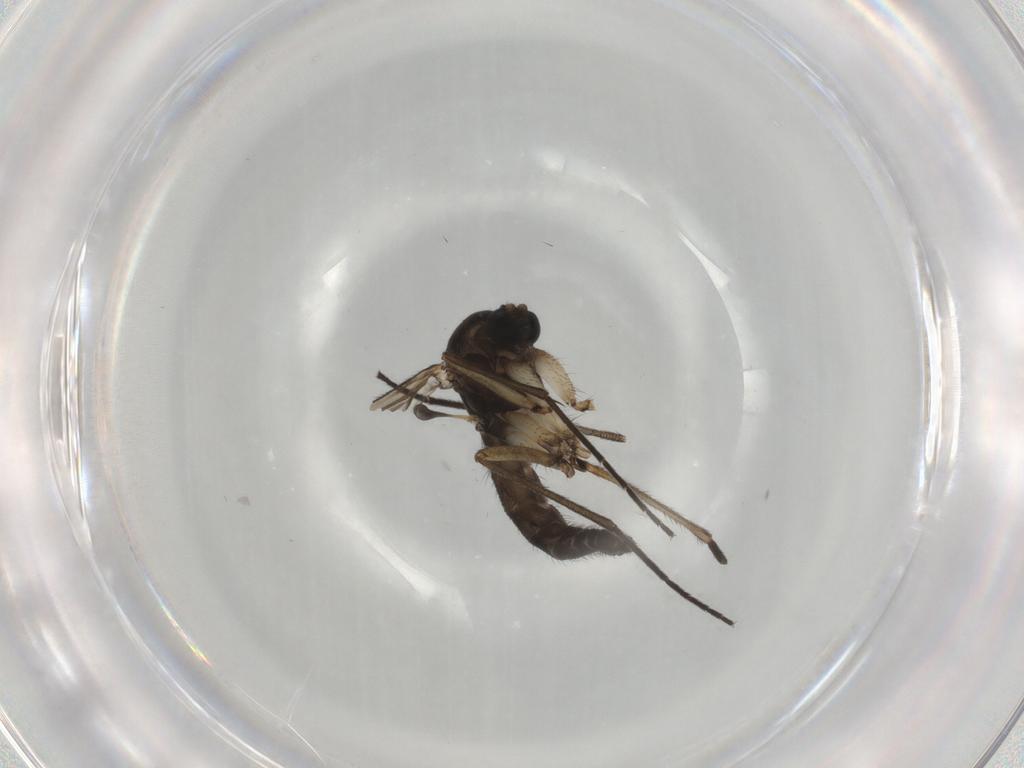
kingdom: Animalia
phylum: Arthropoda
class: Insecta
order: Diptera
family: Sciaridae
